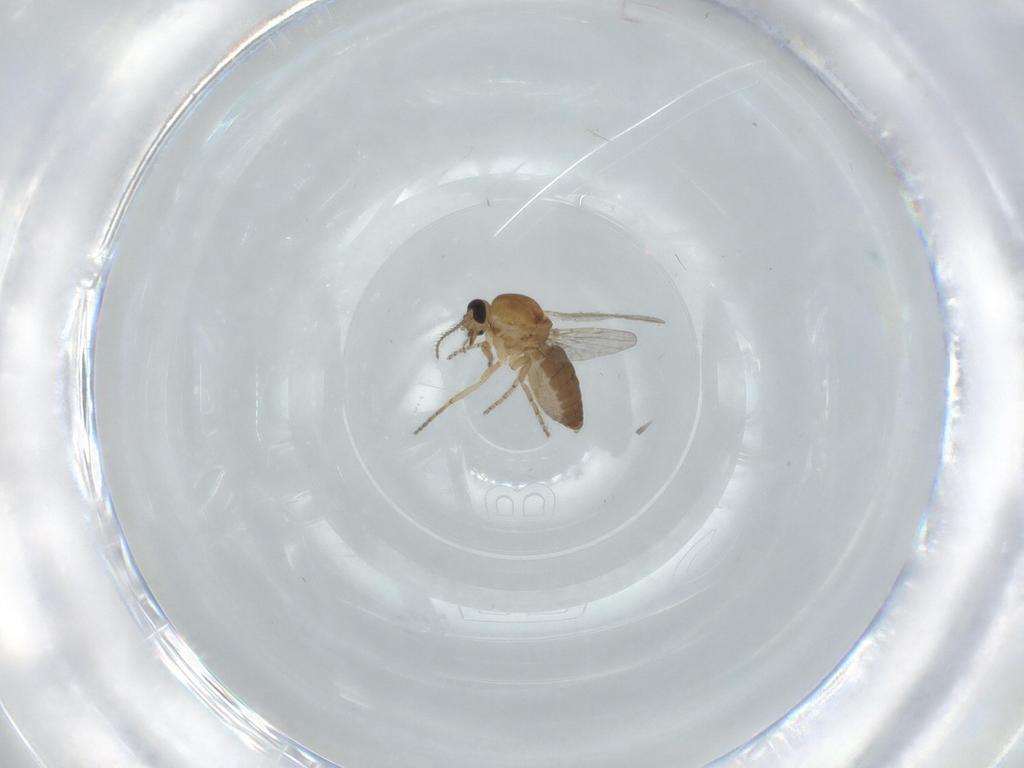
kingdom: Animalia
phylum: Arthropoda
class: Insecta
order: Diptera
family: Ceratopogonidae
